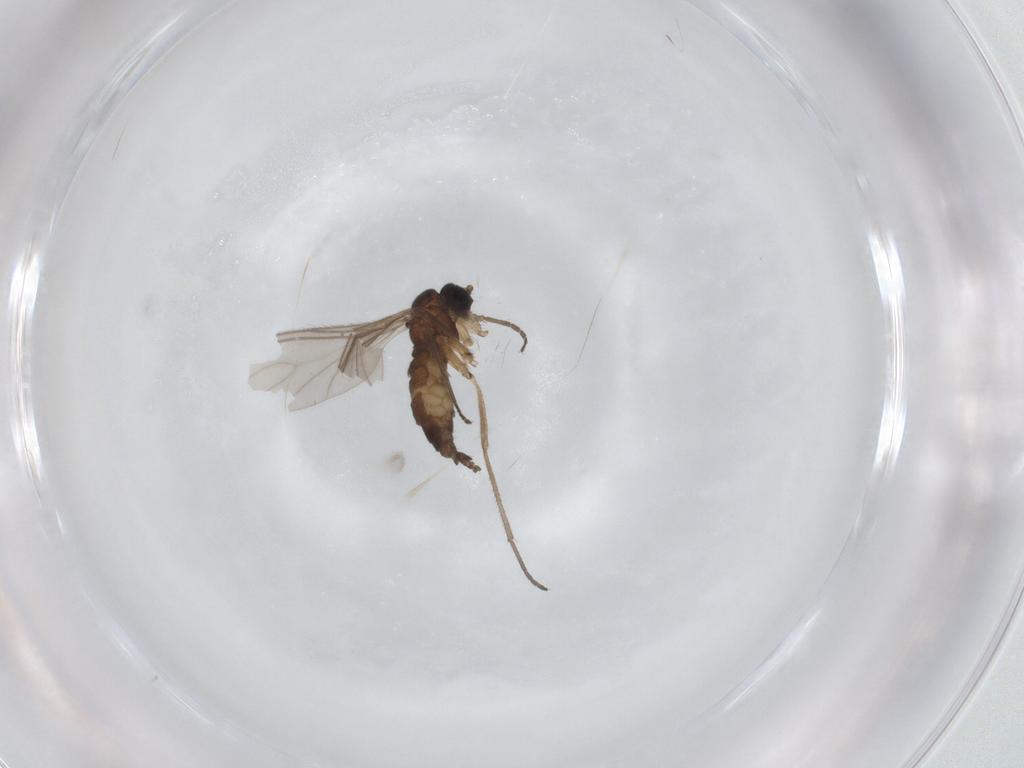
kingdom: Animalia
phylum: Arthropoda
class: Insecta
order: Diptera
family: Sciaridae
